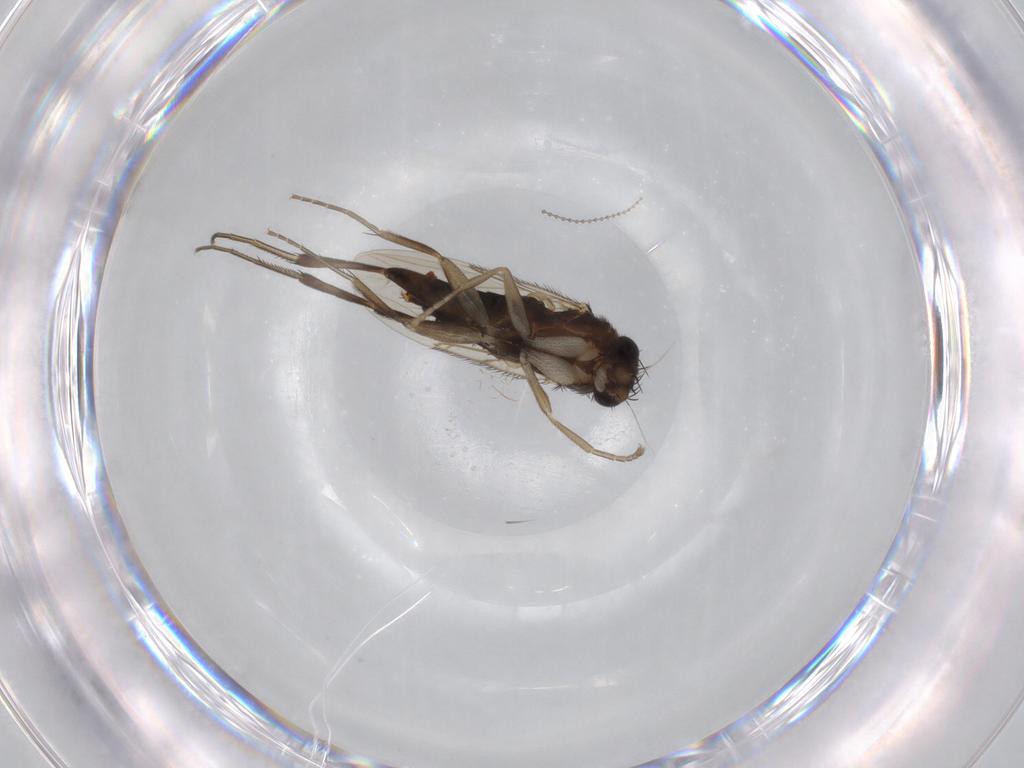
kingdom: Animalia
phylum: Arthropoda
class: Insecta
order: Diptera
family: Phoridae
